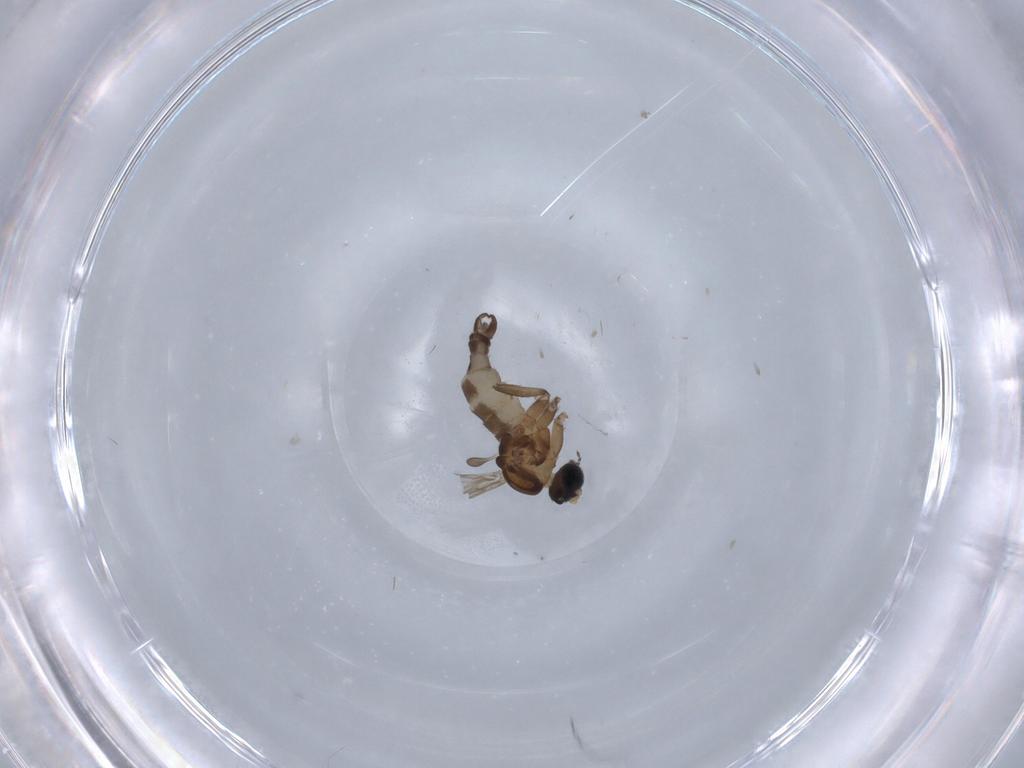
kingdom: Animalia
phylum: Arthropoda
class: Insecta
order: Diptera
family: Sciaridae
